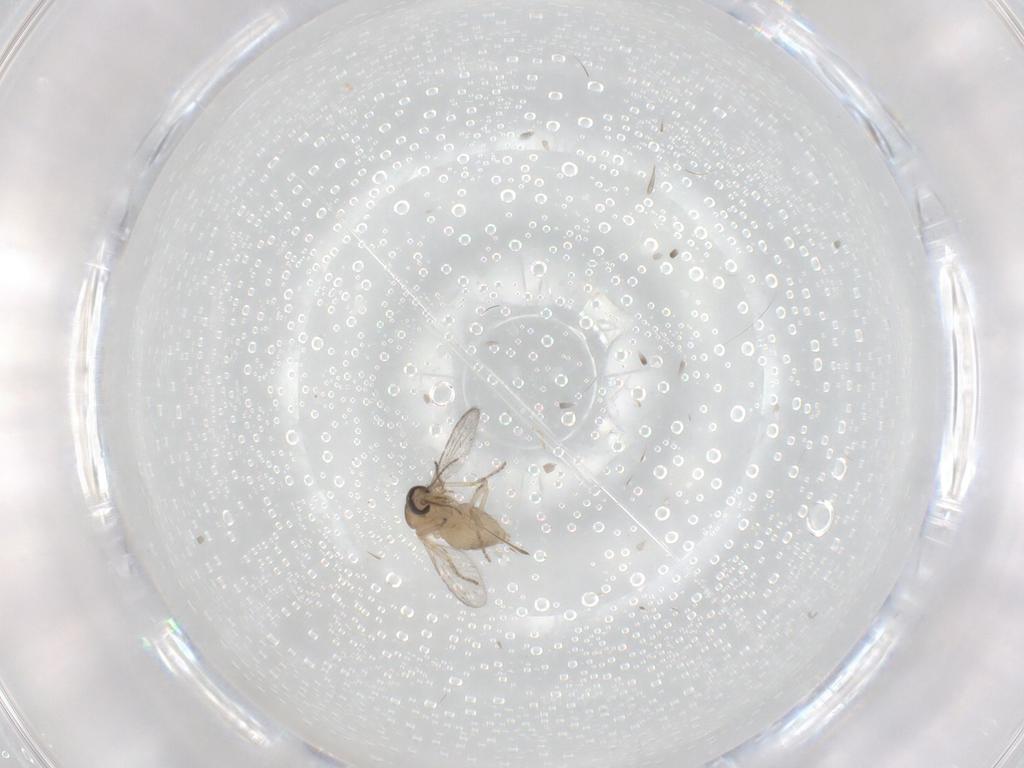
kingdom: Animalia
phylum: Arthropoda
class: Insecta
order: Diptera
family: Ceratopogonidae
